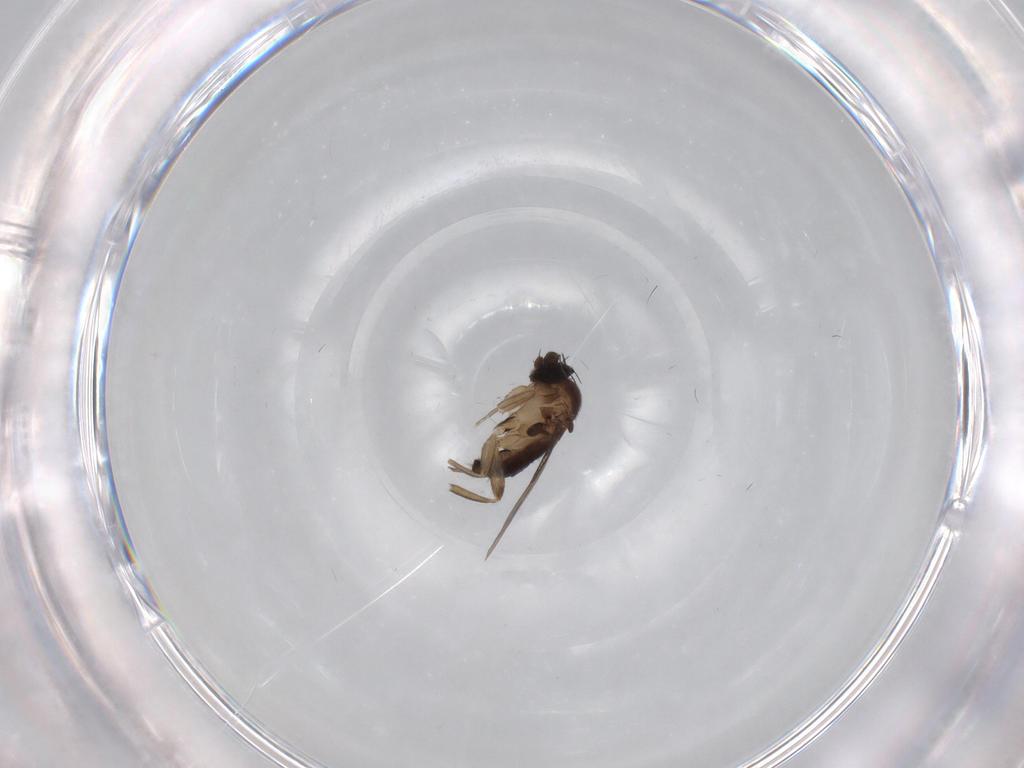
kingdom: Animalia
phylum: Arthropoda
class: Insecta
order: Diptera
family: Phoridae
